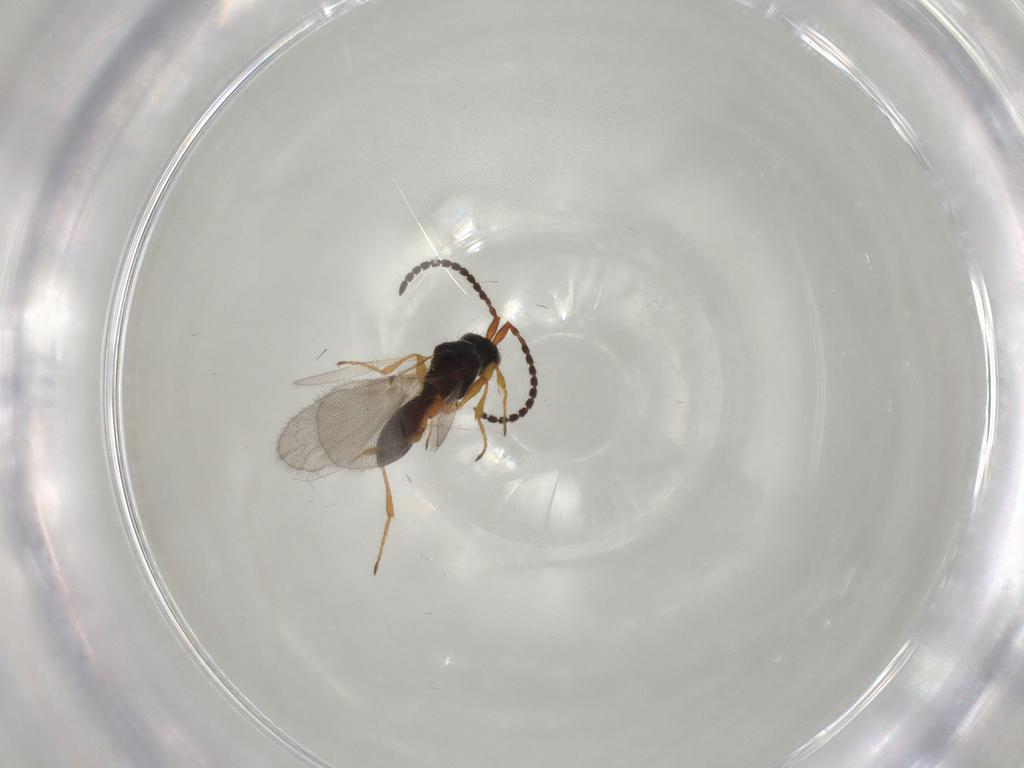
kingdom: Animalia
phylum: Arthropoda
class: Insecta
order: Hymenoptera
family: Diapriidae
